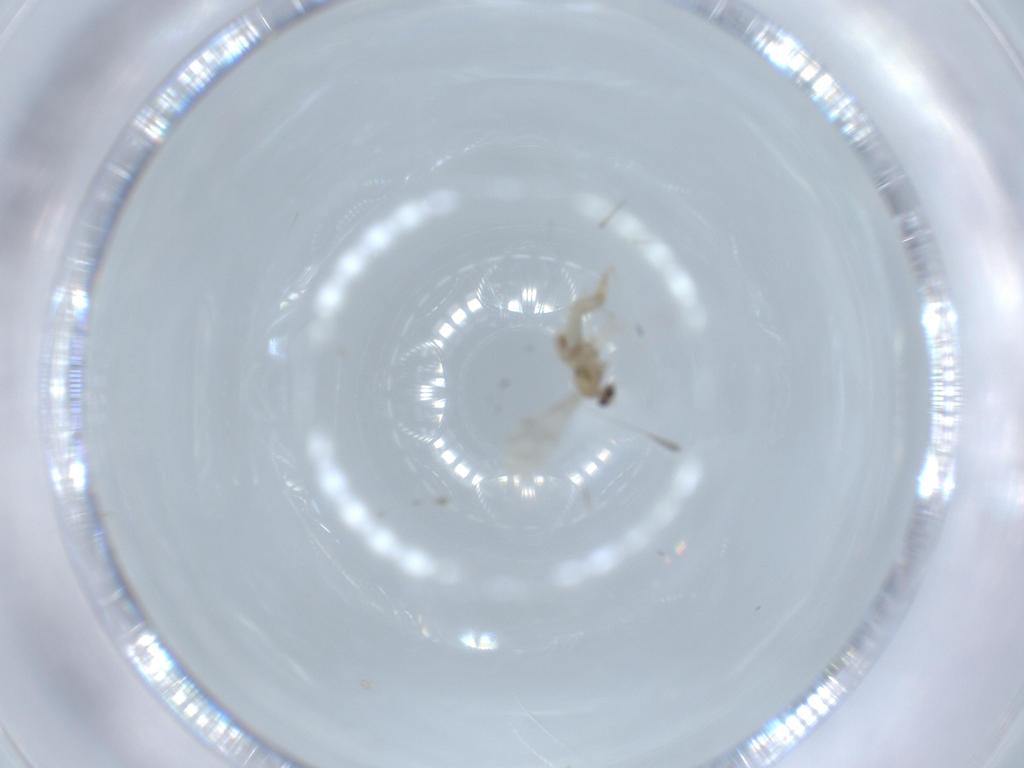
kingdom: Animalia
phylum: Arthropoda
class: Insecta
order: Diptera
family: Cecidomyiidae
